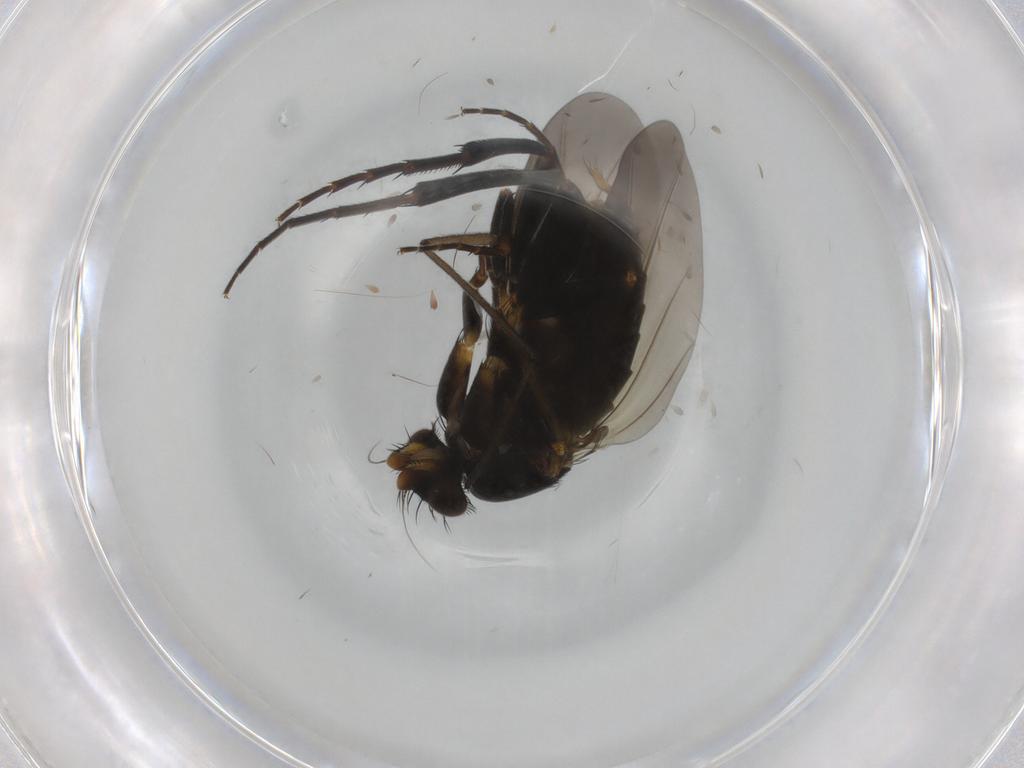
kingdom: Animalia
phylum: Arthropoda
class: Insecta
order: Diptera
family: Phoridae
